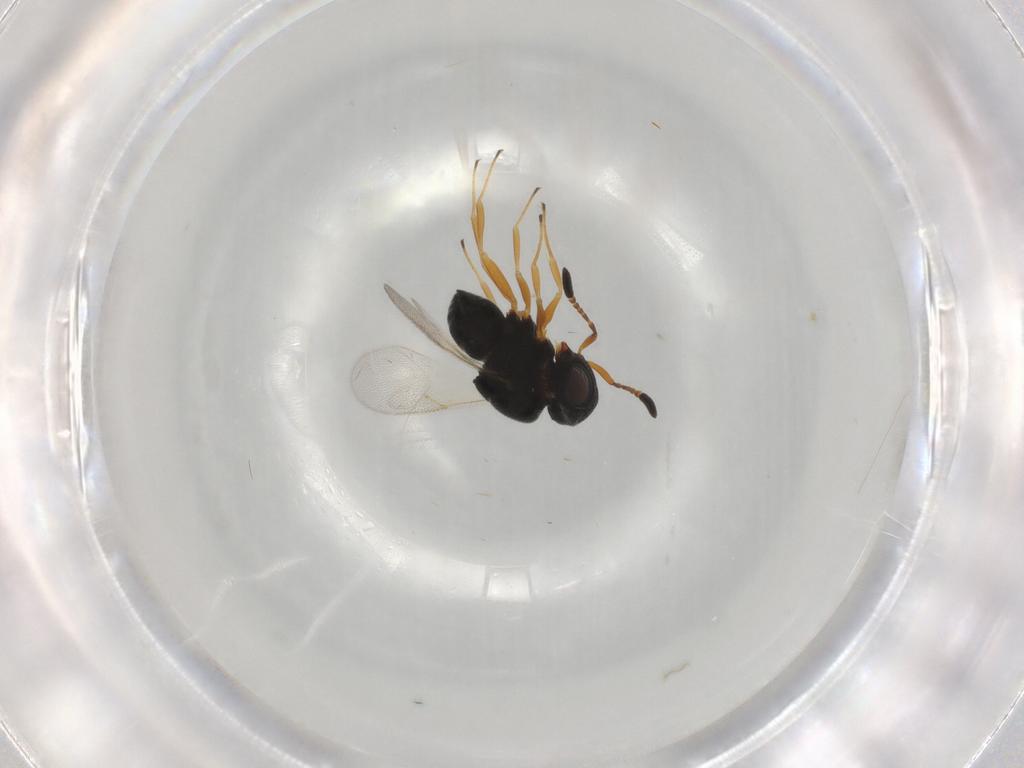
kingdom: Animalia
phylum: Arthropoda
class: Insecta
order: Hymenoptera
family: Scelionidae
